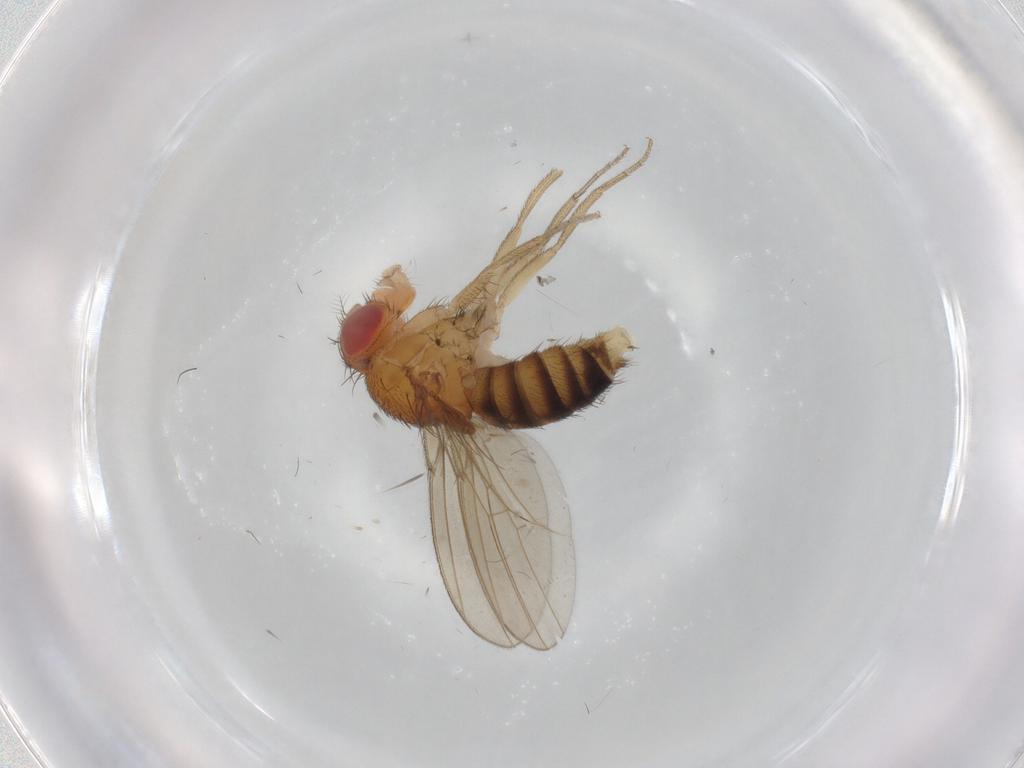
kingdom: Animalia
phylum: Arthropoda
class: Insecta
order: Diptera
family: Drosophilidae
